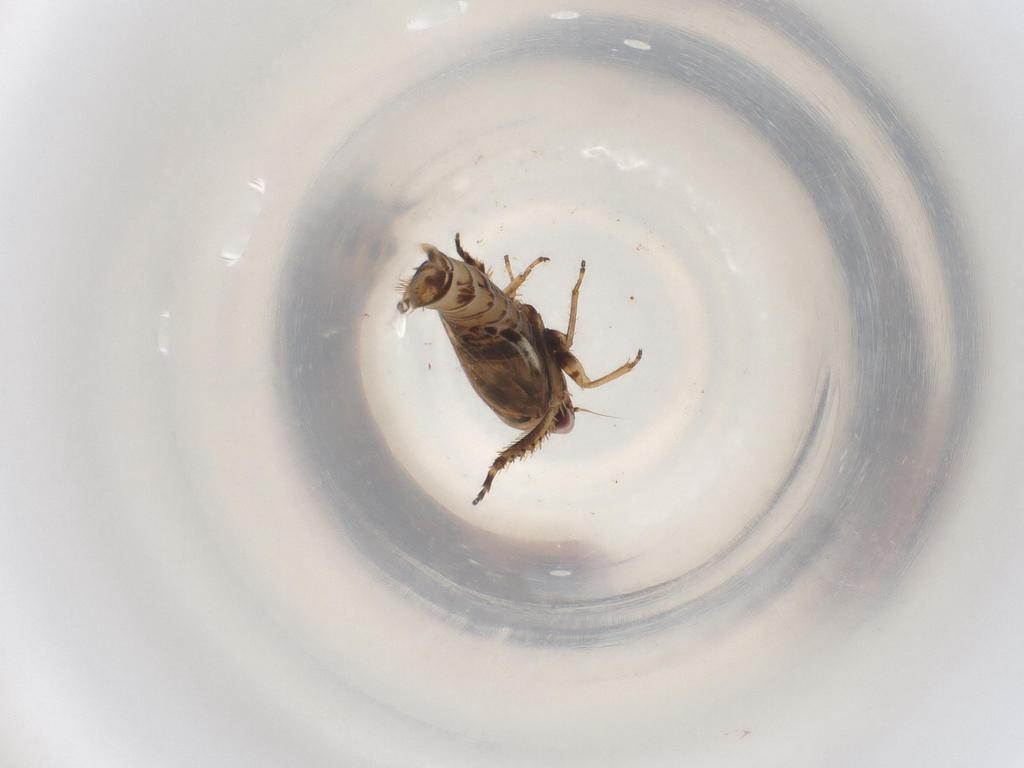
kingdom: Animalia
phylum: Arthropoda
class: Insecta
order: Hemiptera
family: Cicadellidae
